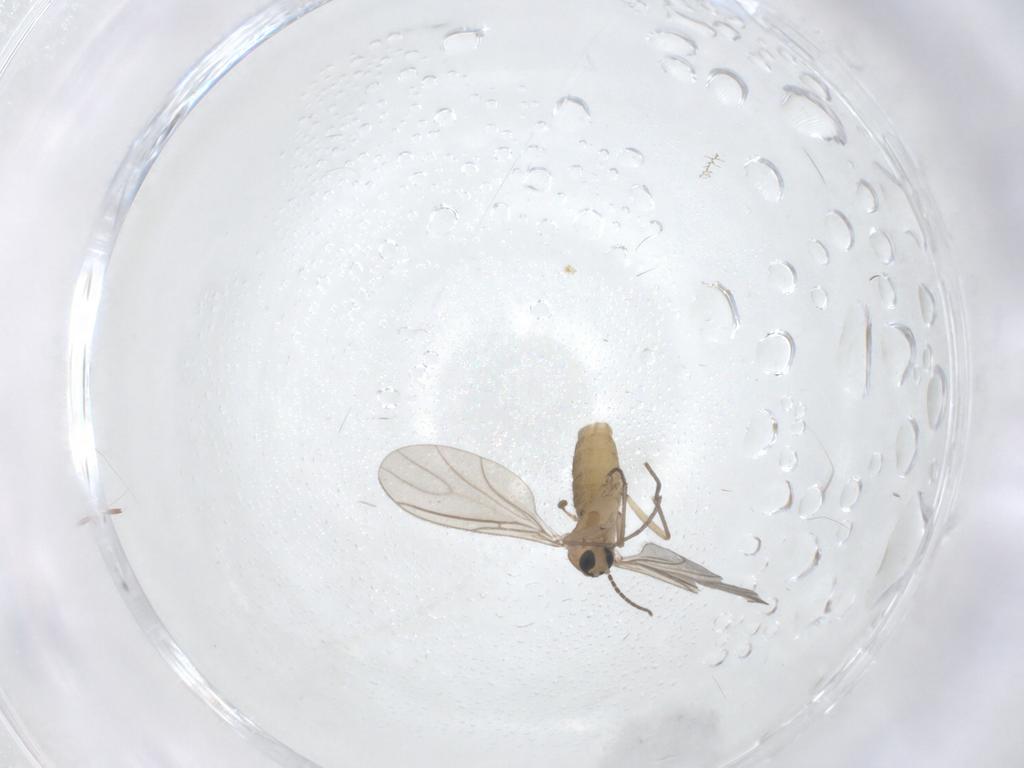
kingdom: Animalia
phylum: Arthropoda
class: Insecta
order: Diptera
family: Sciaridae
